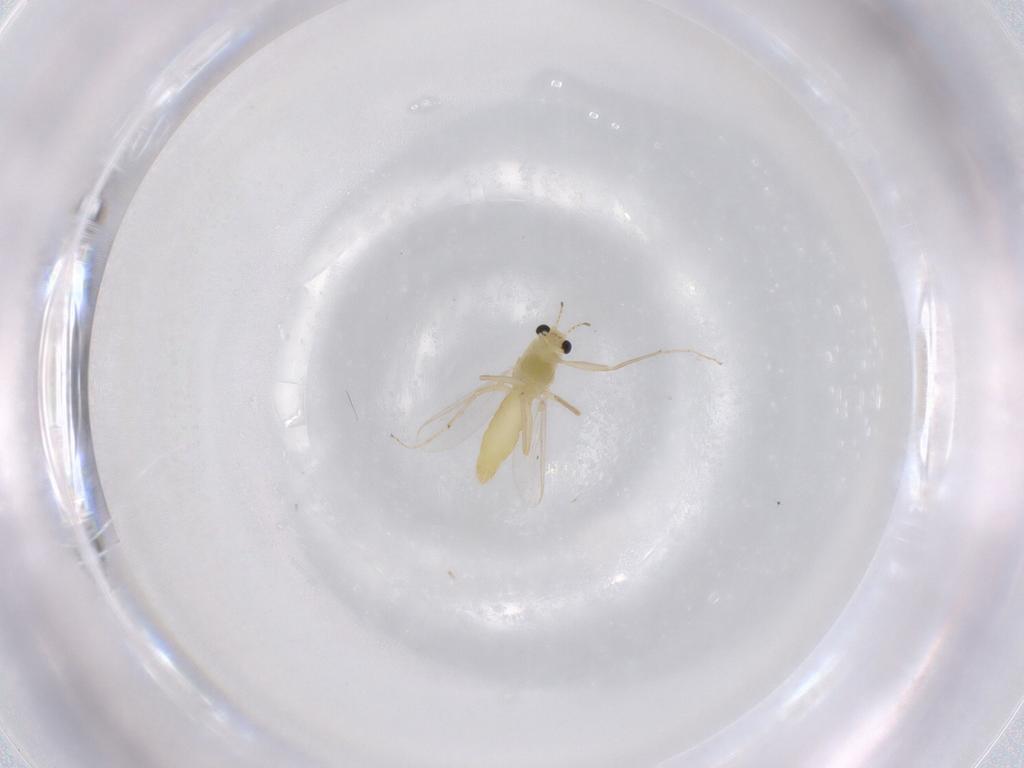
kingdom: Animalia
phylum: Arthropoda
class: Insecta
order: Diptera
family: Chironomidae
